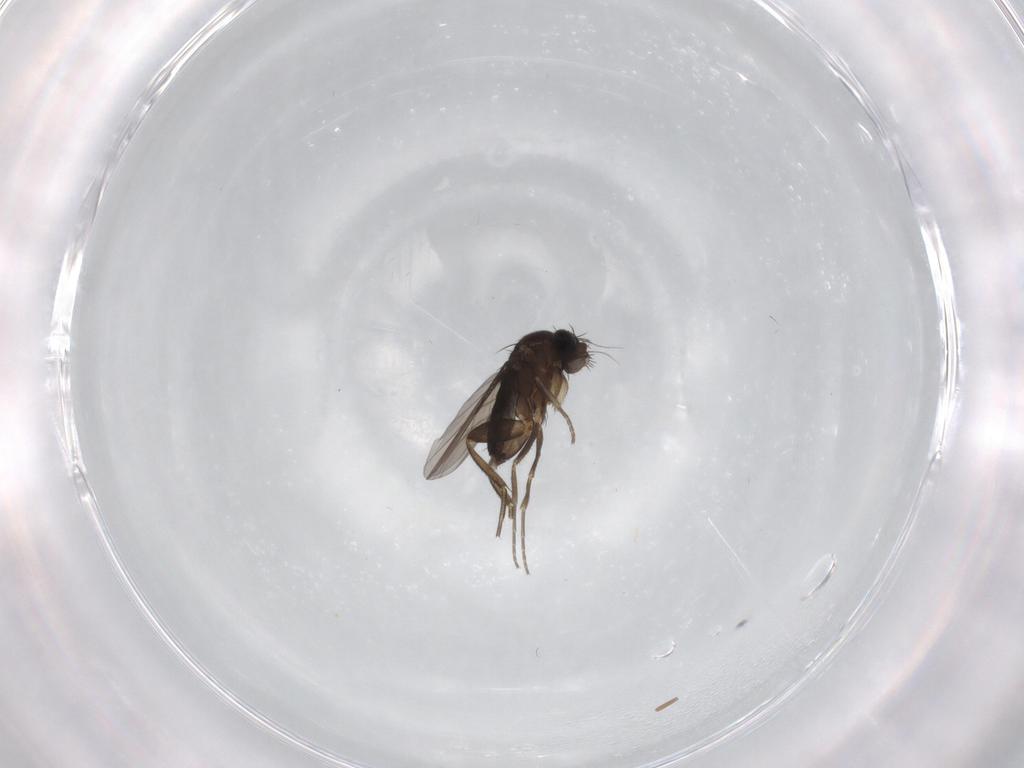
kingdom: Animalia
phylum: Arthropoda
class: Insecta
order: Diptera
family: Phoridae
